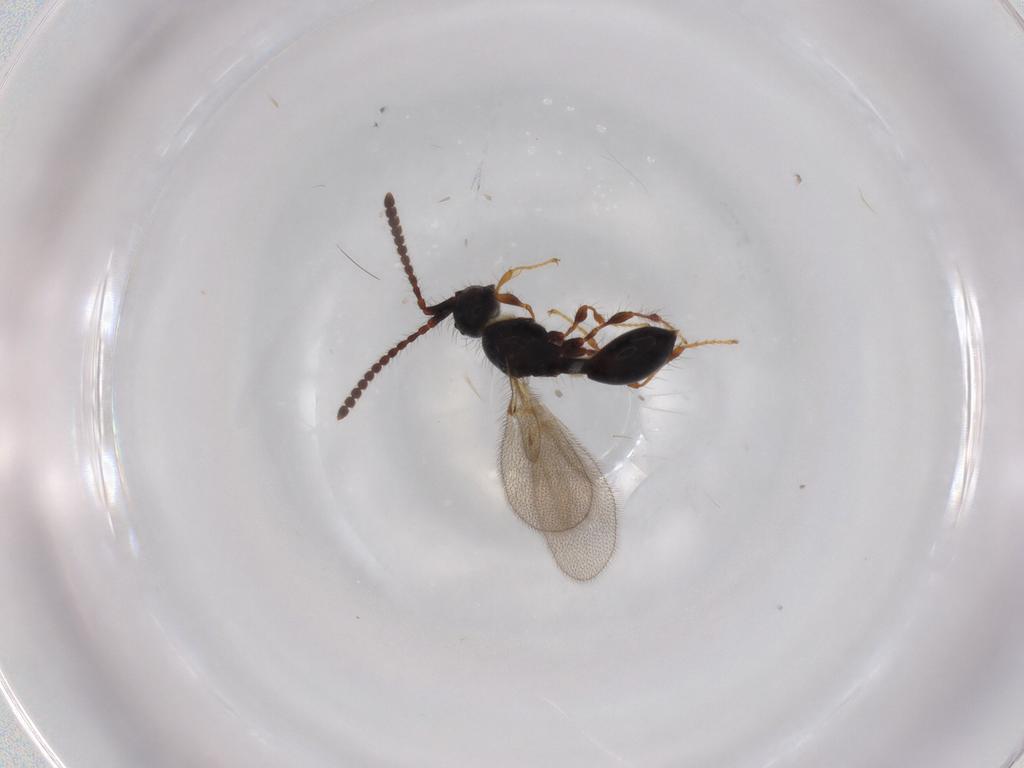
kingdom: Animalia
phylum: Arthropoda
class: Insecta
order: Hymenoptera
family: Diapriidae
